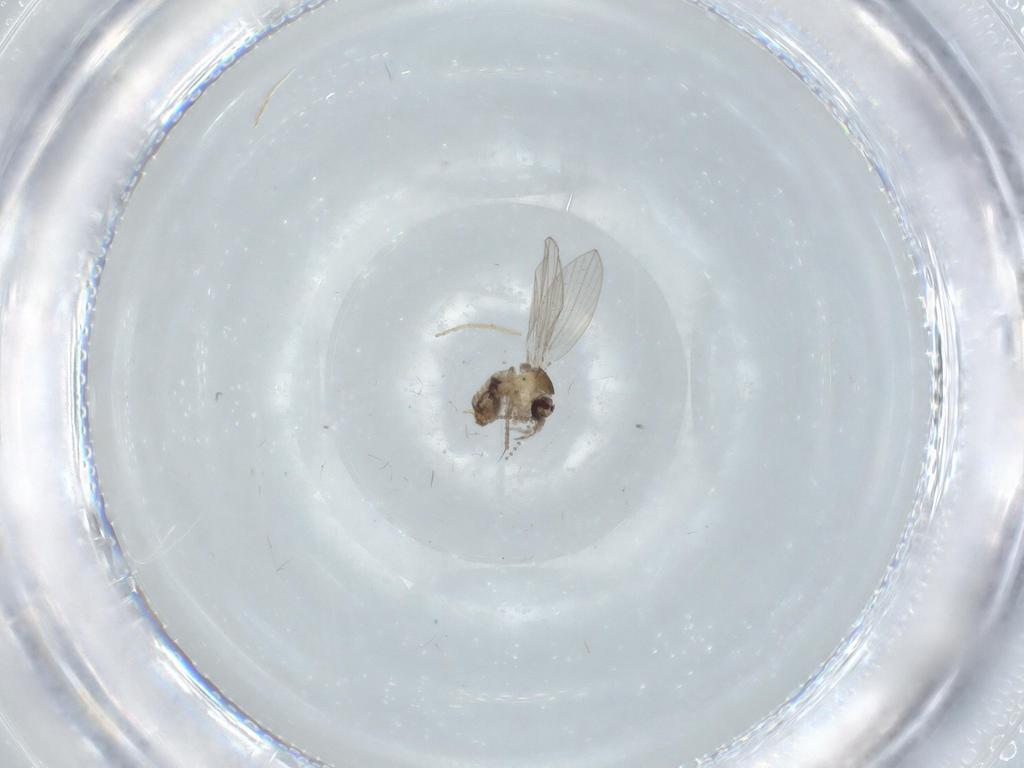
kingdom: Animalia
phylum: Arthropoda
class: Insecta
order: Diptera
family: Psychodidae
